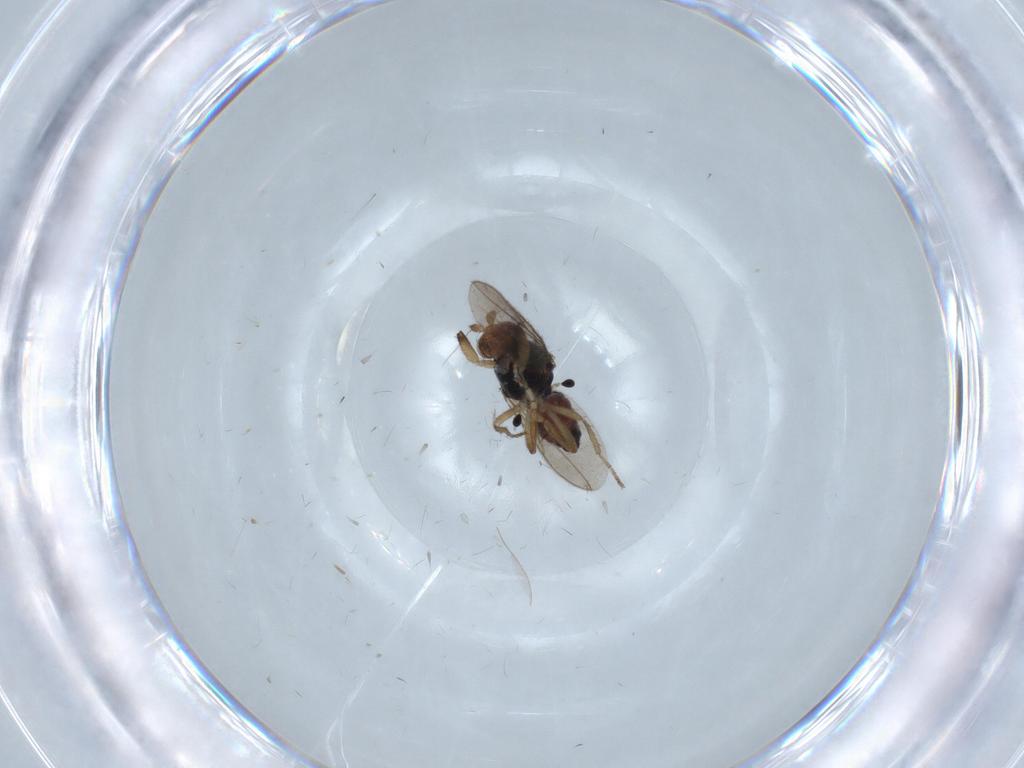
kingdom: Animalia
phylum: Arthropoda
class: Insecta
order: Diptera
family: Sphaeroceridae
